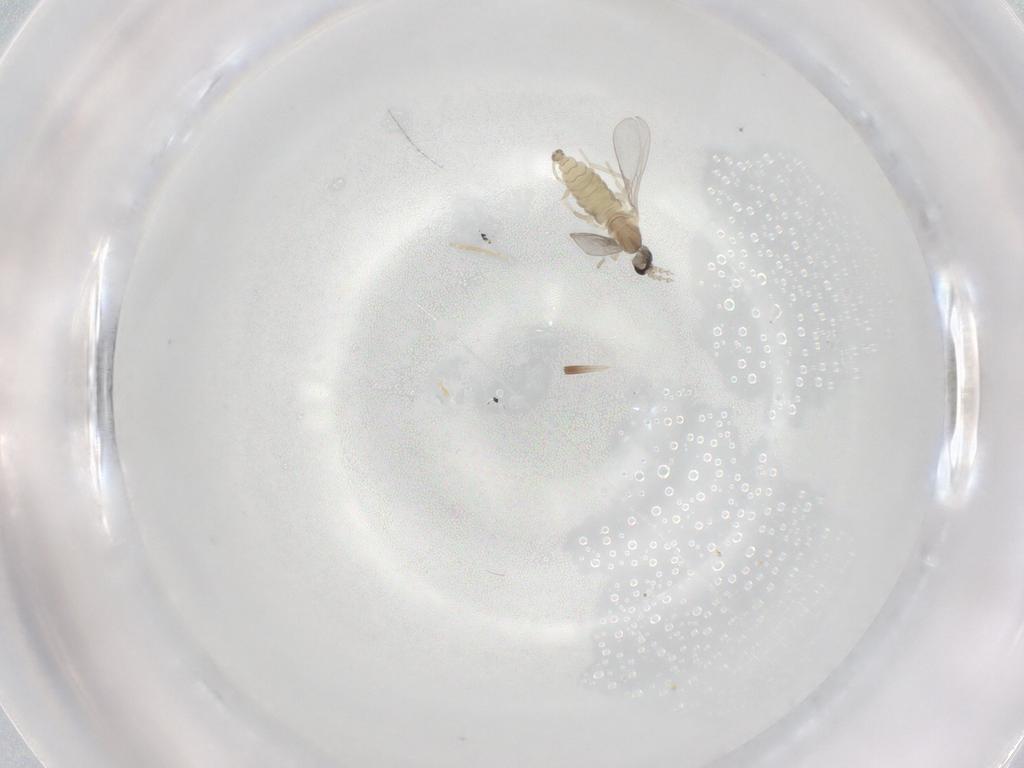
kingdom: Animalia
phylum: Arthropoda
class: Insecta
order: Diptera
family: Cecidomyiidae
